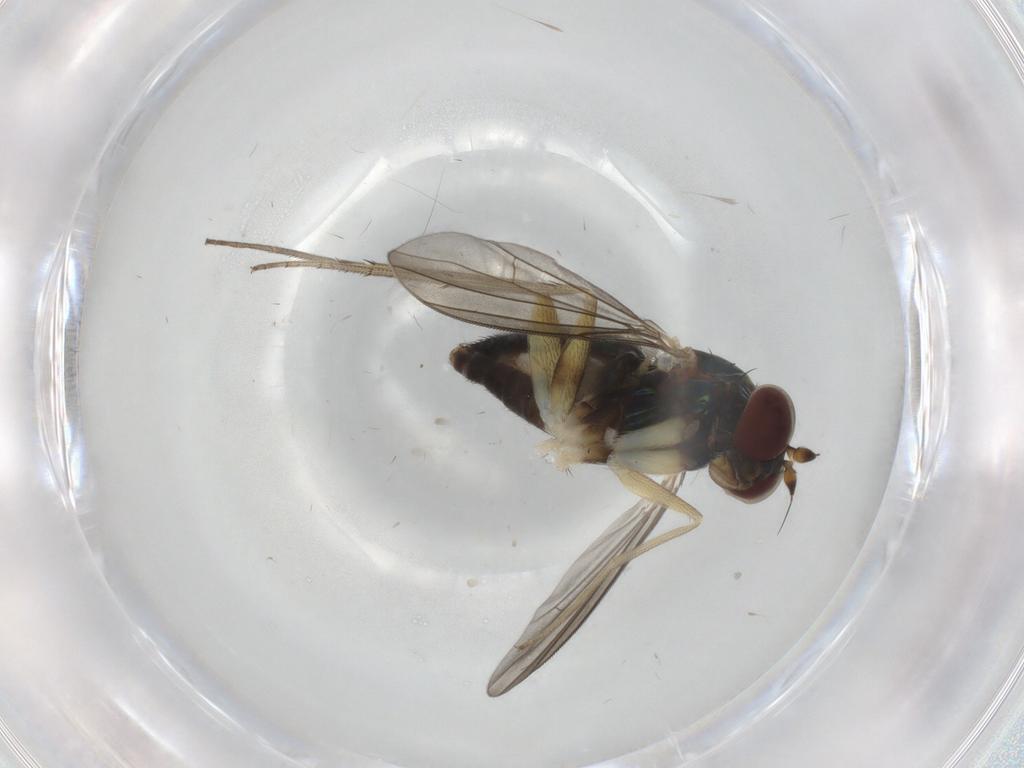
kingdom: Animalia
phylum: Arthropoda
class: Insecta
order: Diptera
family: Dolichopodidae
